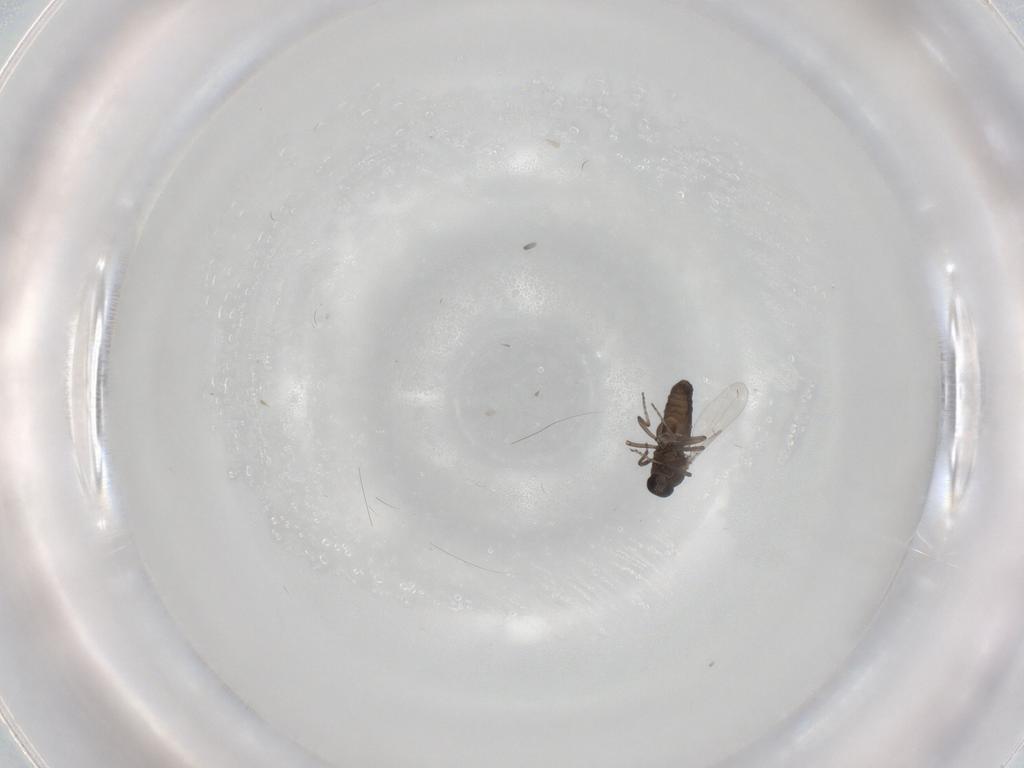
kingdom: Animalia
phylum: Arthropoda
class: Insecta
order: Diptera
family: Ceratopogonidae
